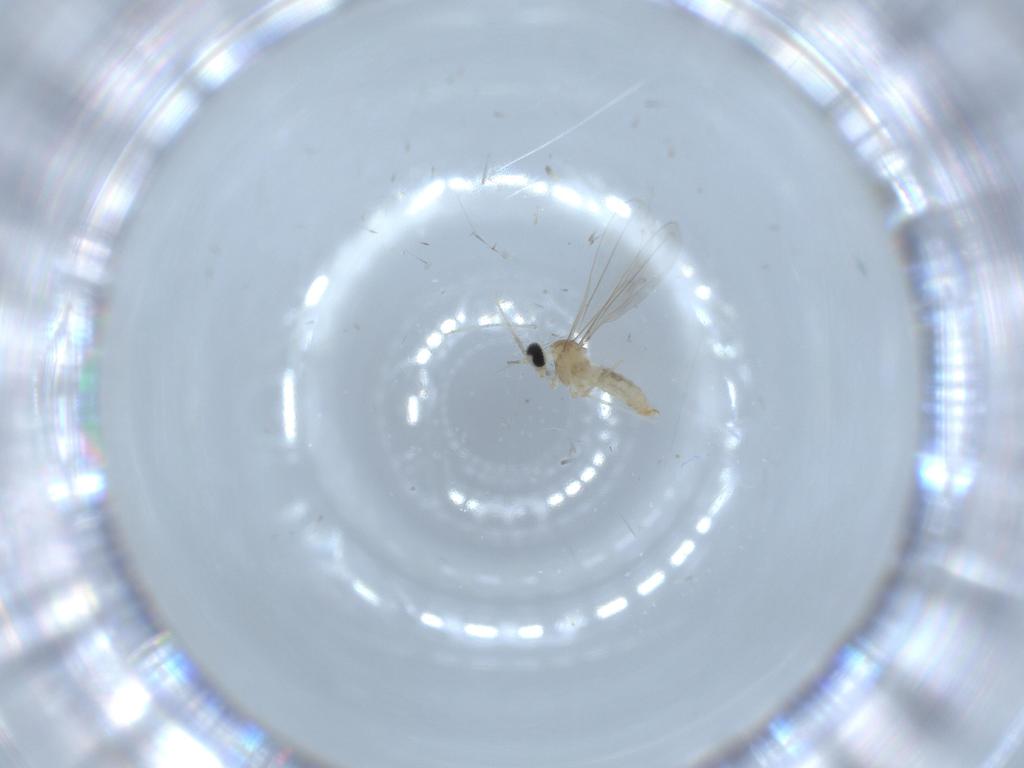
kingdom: Animalia
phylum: Arthropoda
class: Insecta
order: Diptera
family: Cecidomyiidae
